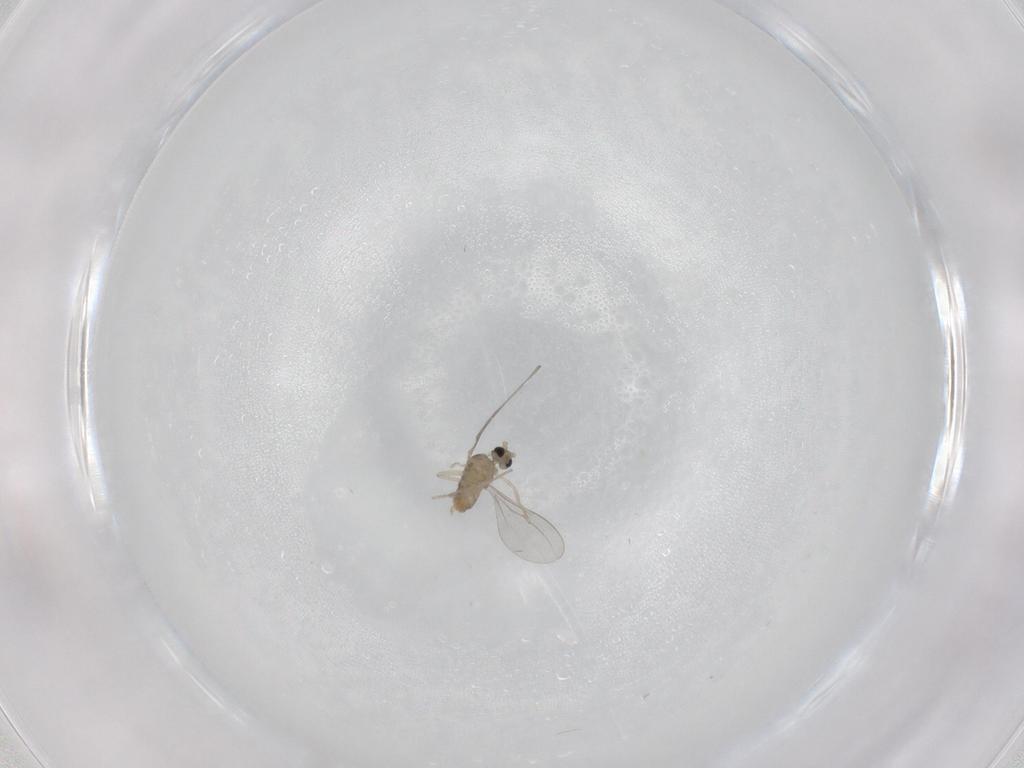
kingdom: Animalia
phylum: Arthropoda
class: Insecta
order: Diptera
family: Cecidomyiidae
